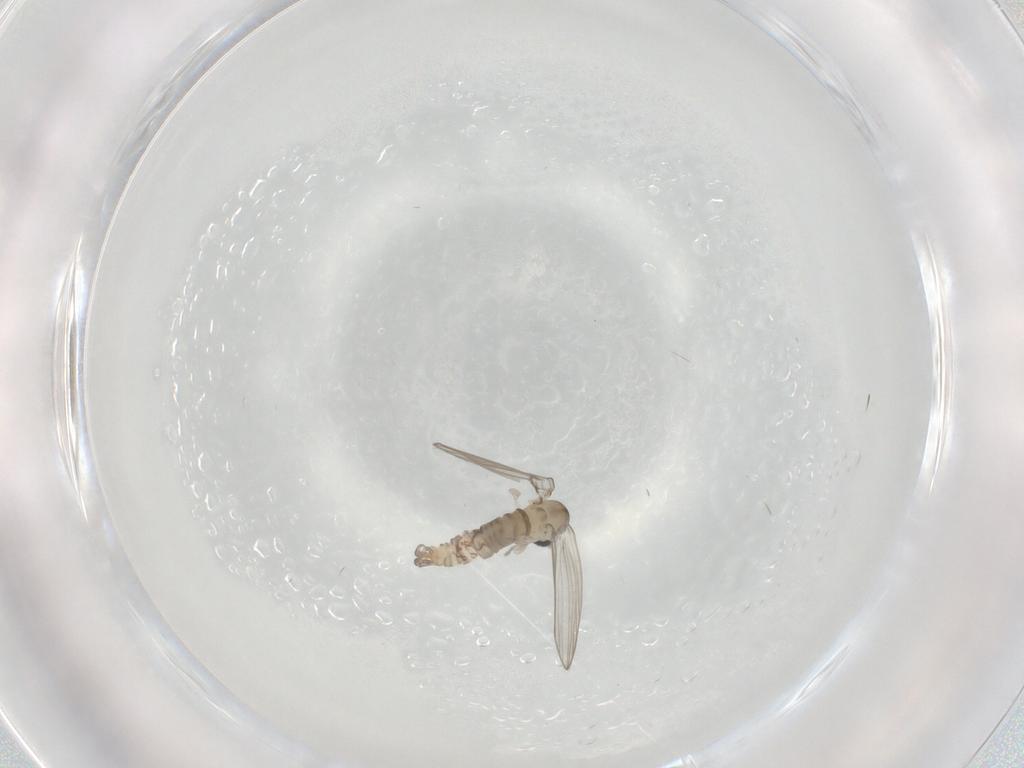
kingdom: Animalia
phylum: Arthropoda
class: Insecta
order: Diptera
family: Psychodidae
